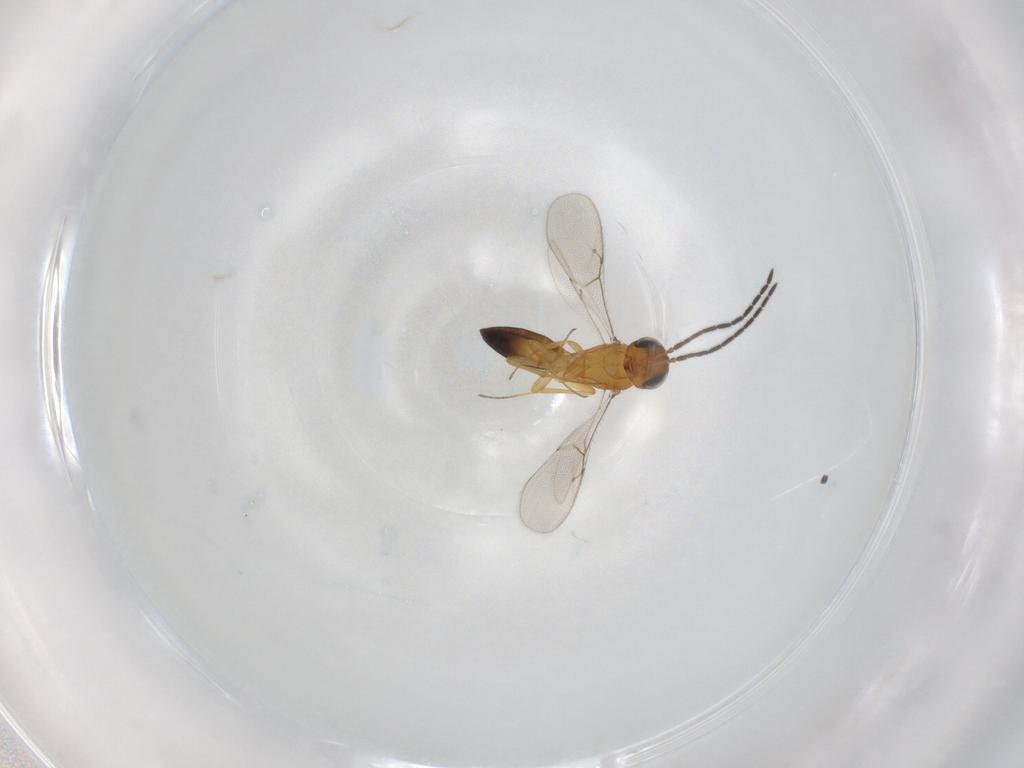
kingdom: Animalia
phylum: Arthropoda
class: Insecta
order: Hymenoptera
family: Scelionidae
